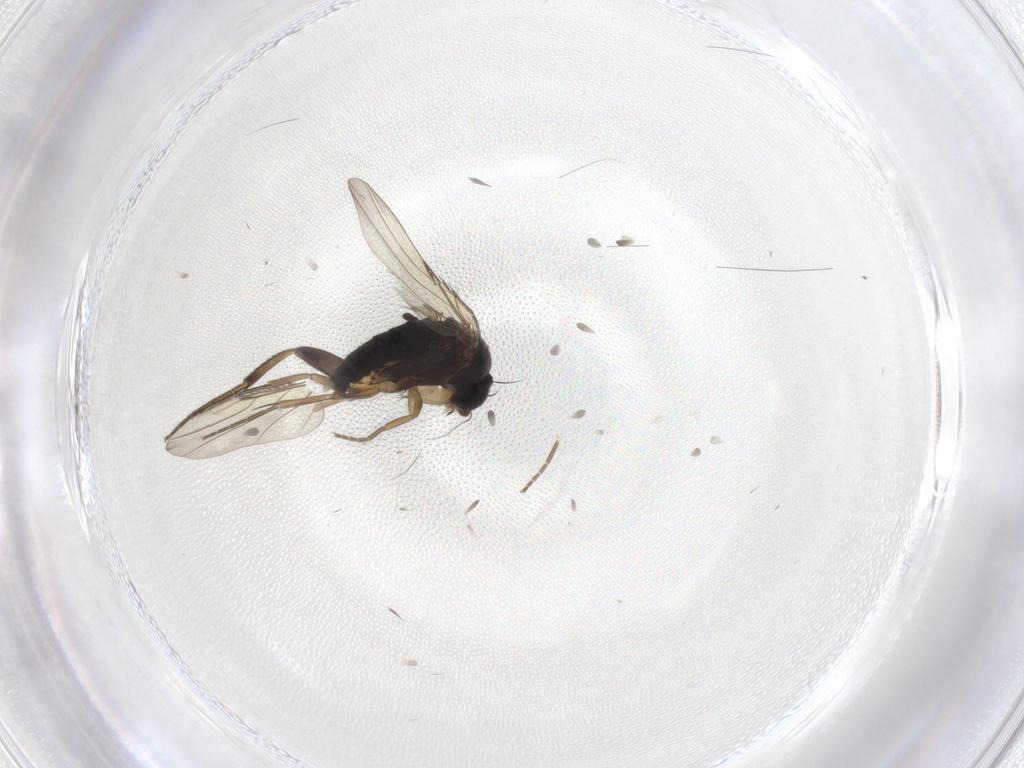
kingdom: Animalia
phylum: Arthropoda
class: Insecta
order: Diptera
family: Phoridae
